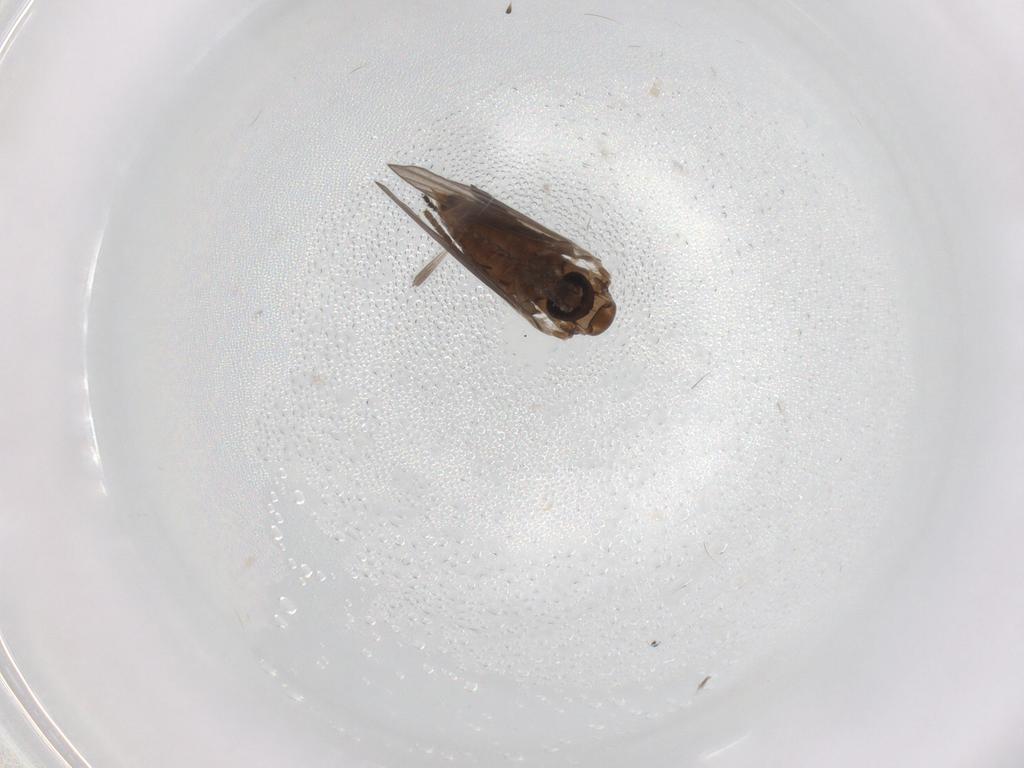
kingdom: Animalia
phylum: Arthropoda
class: Insecta
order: Diptera
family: Psychodidae
